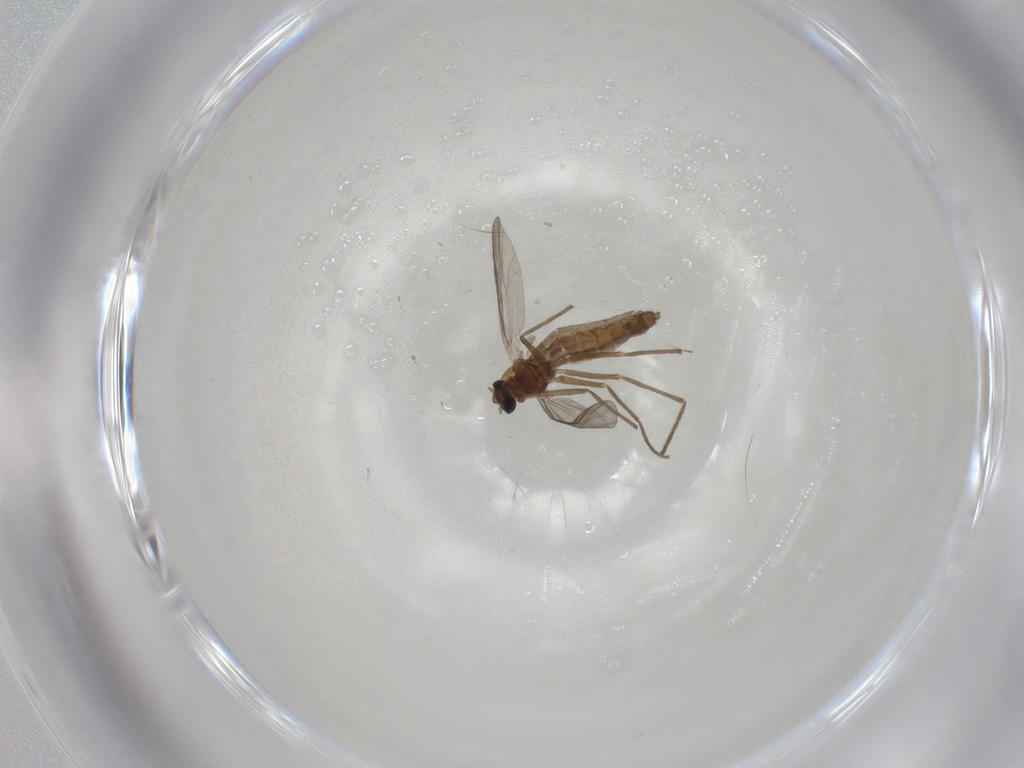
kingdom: Animalia
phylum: Arthropoda
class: Insecta
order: Diptera
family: Chironomidae
